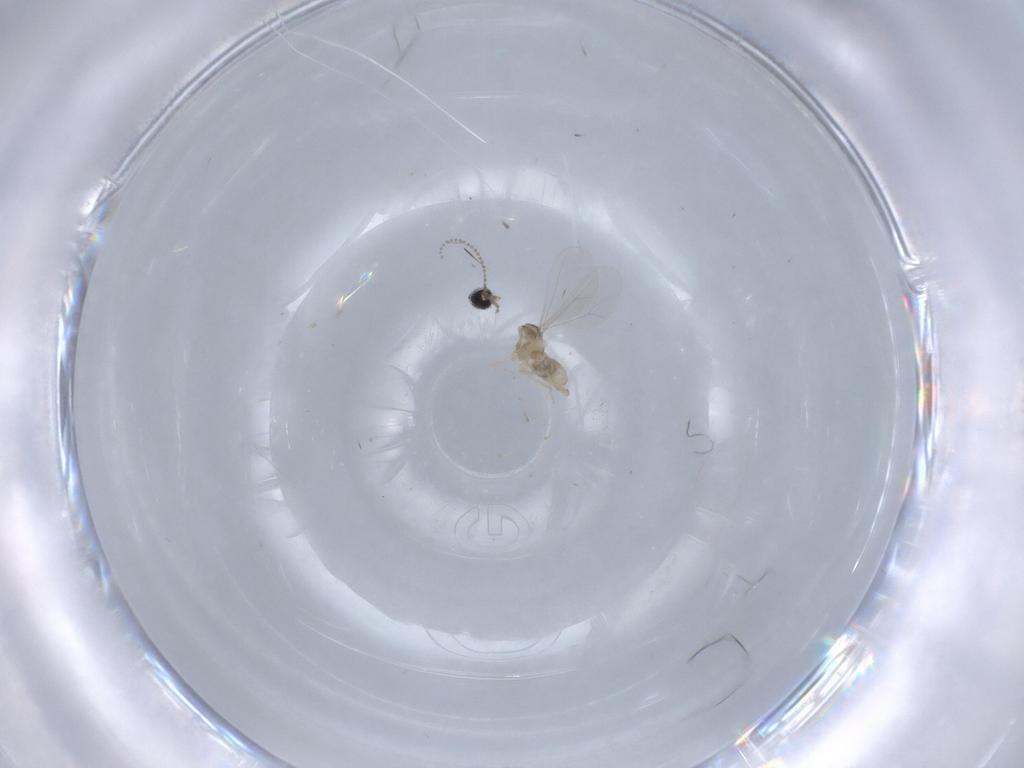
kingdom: Animalia
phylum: Arthropoda
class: Insecta
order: Diptera
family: Cecidomyiidae
